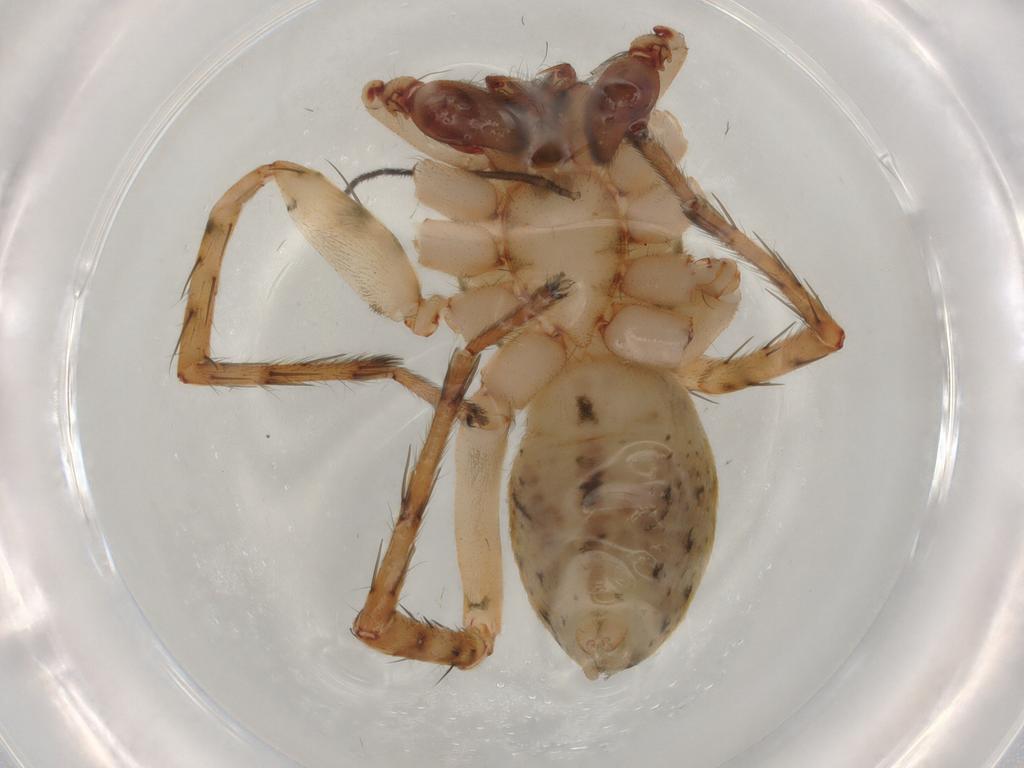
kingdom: Animalia
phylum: Arthropoda
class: Arachnida
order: Araneae
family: Anyphaenidae
